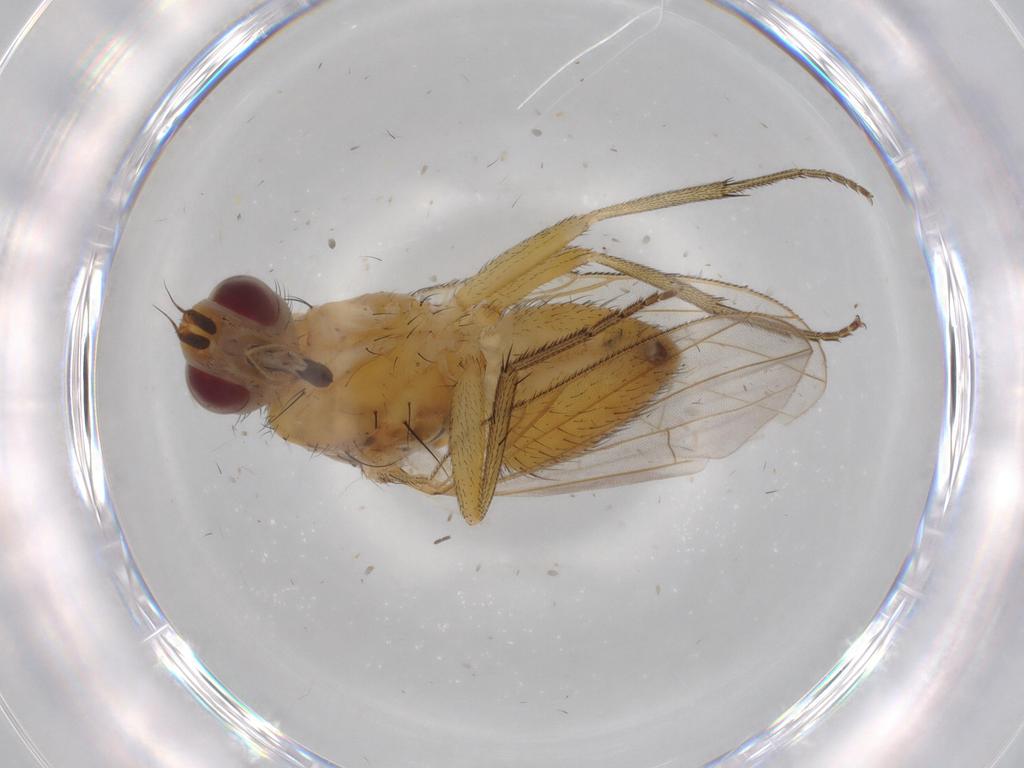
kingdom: Animalia
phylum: Arthropoda
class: Insecta
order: Diptera
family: Muscidae
